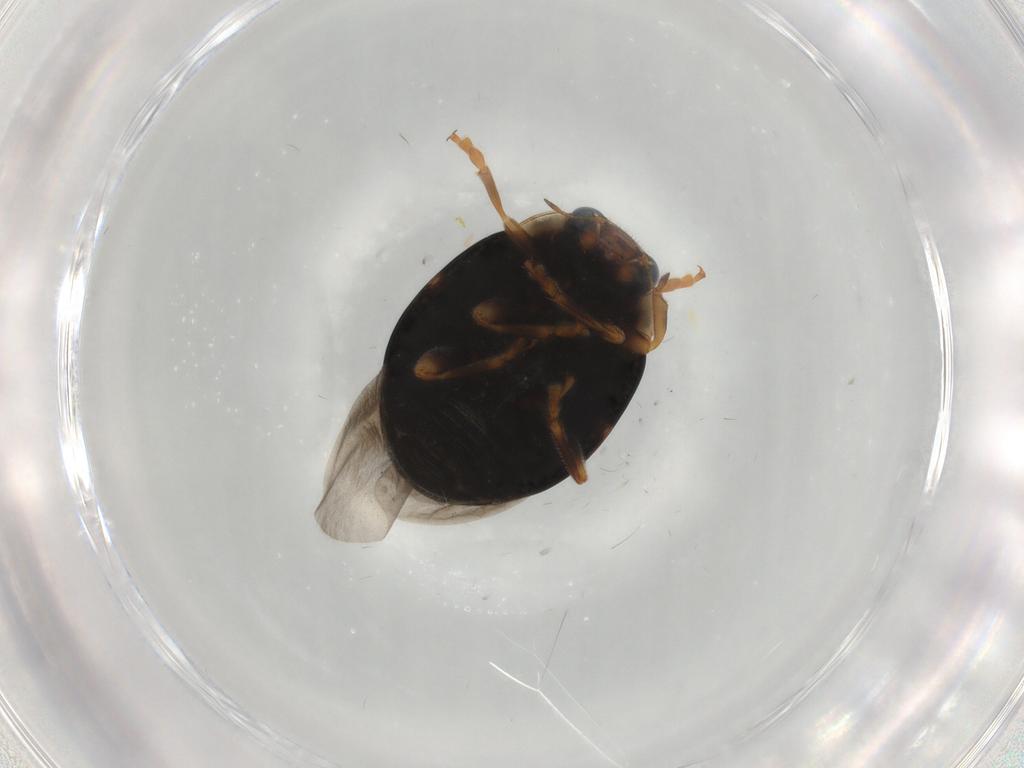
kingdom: Animalia
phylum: Arthropoda
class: Insecta
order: Coleoptera
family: Coccinellidae
